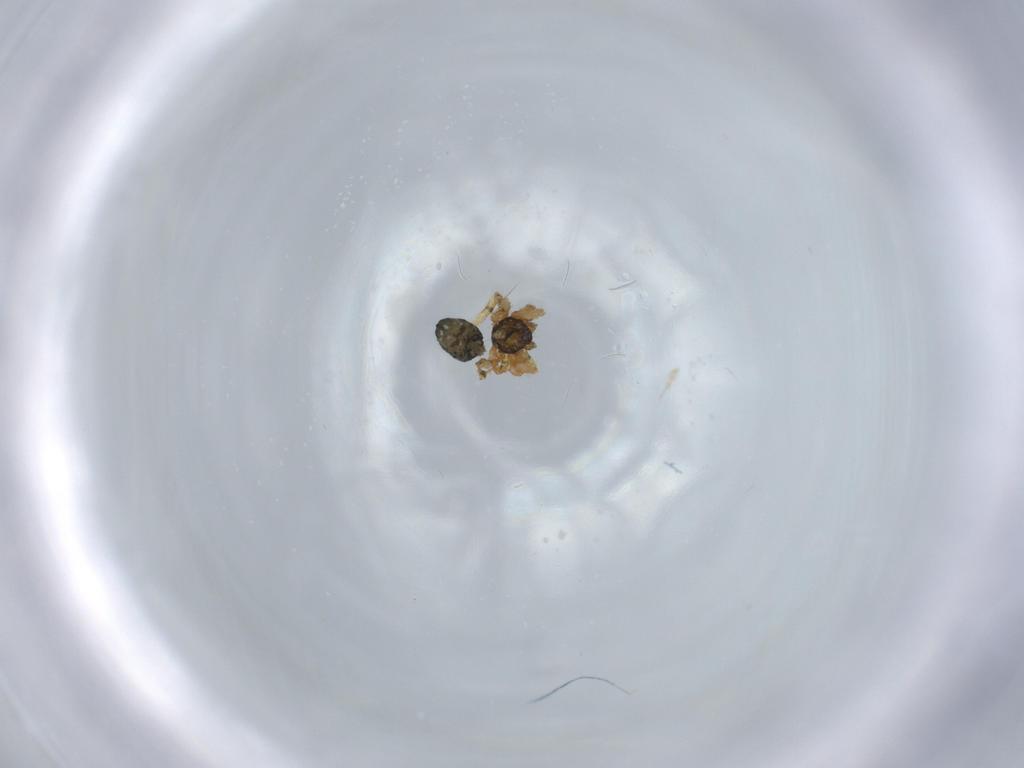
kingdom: Animalia
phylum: Arthropoda
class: Arachnida
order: Araneae
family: Theridiidae
